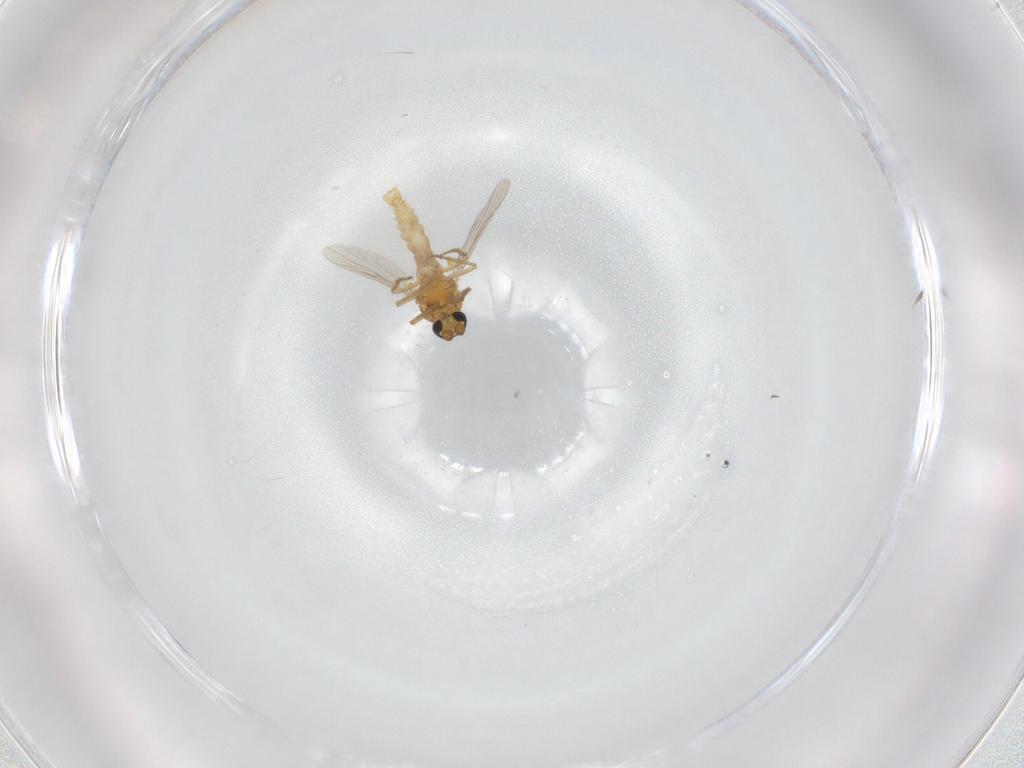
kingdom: Animalia
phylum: Arthropoda
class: Insecta
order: Diptera
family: Ceratopogonidae
